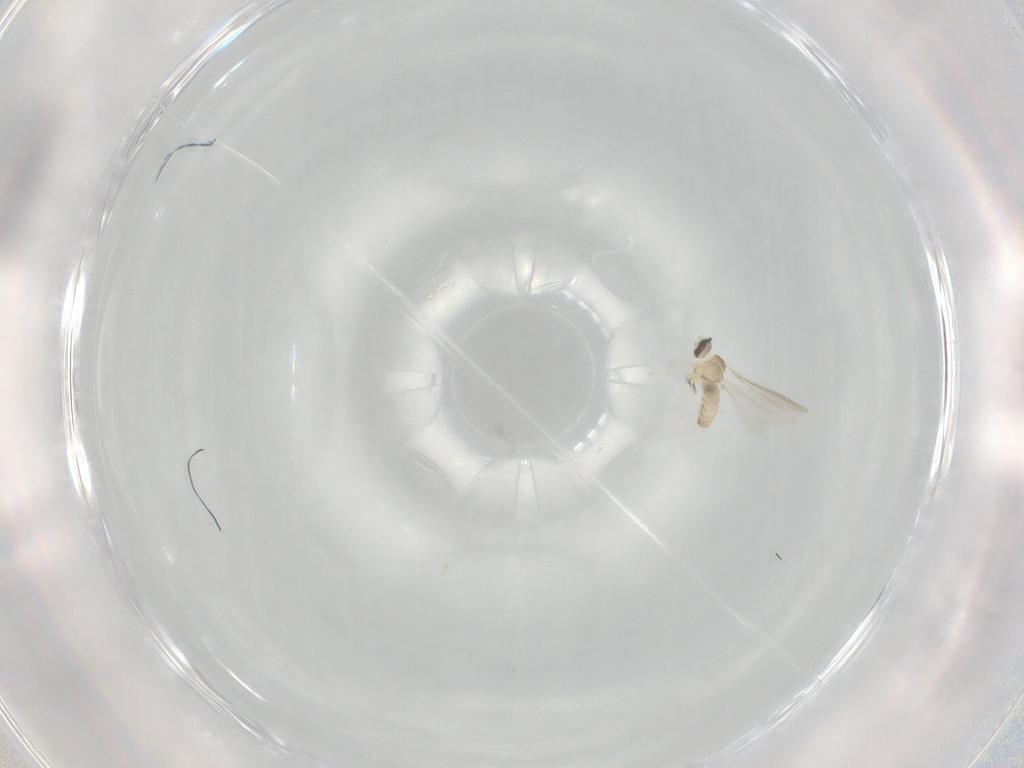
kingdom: Animalia
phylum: Arthropoda
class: Insecta
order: Diptera
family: Cecidomyiidae
